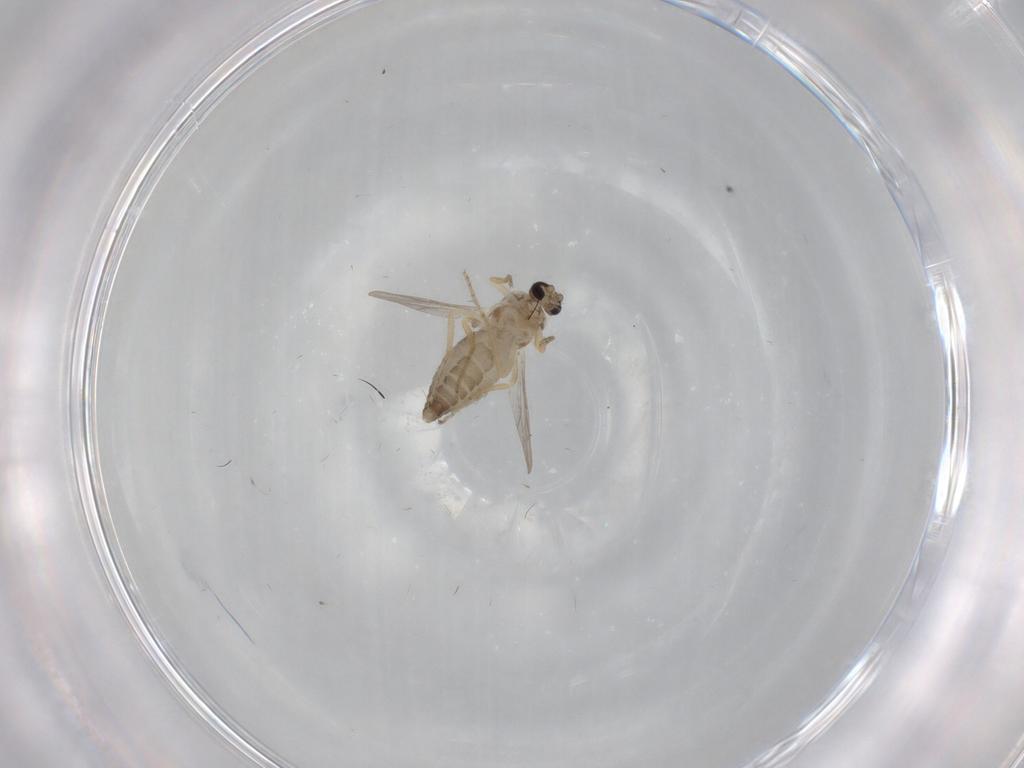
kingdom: Animalia
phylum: Arthropoda
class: Insecta
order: Diptera
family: Ceratopogonidae
